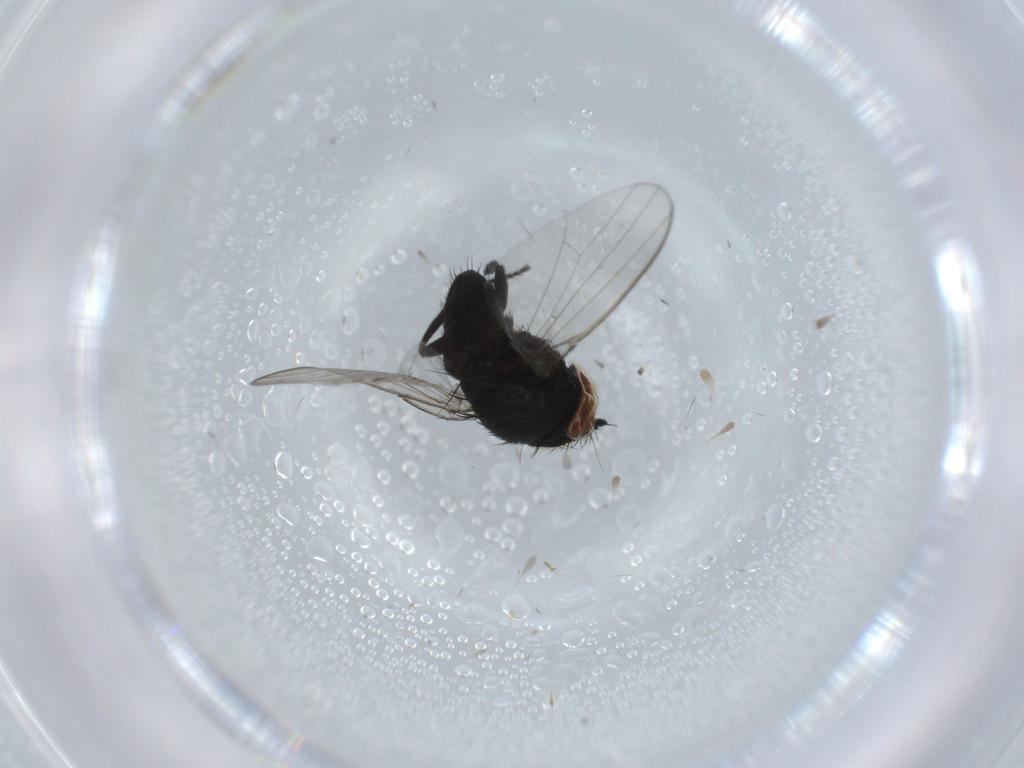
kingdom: Animalia
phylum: Arthropoda
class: Insecta
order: Diptera
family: Milichiidae
